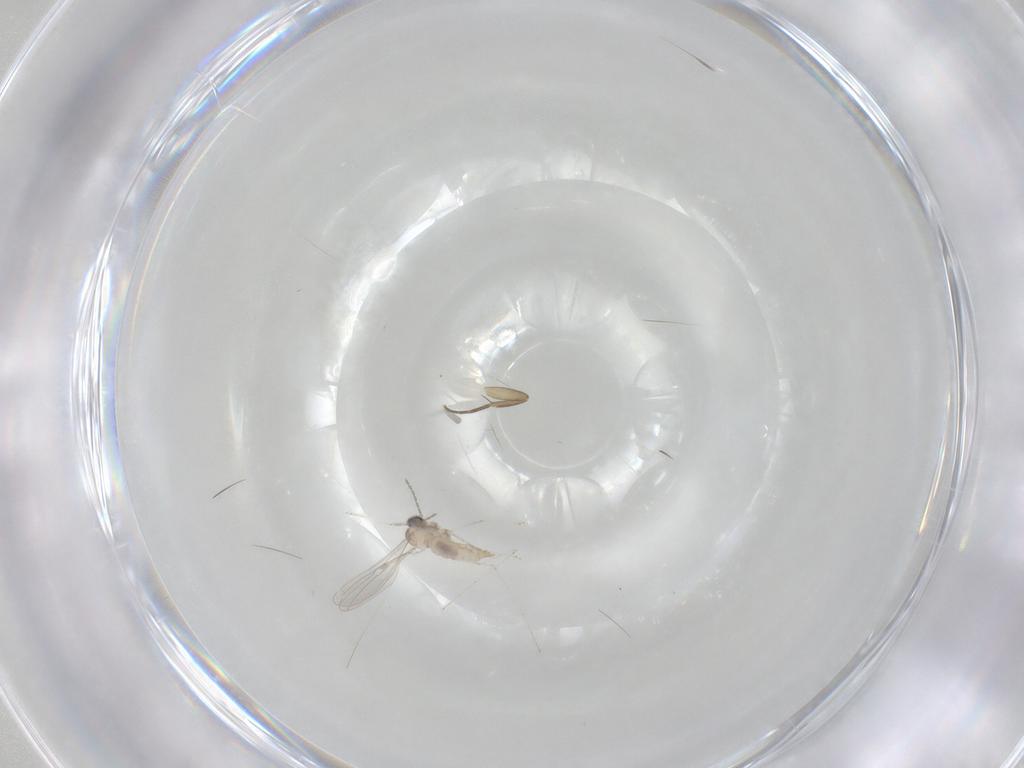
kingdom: Animalia
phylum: Arthropoda
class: Insecta
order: Diptera
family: Cecidomyiidae
